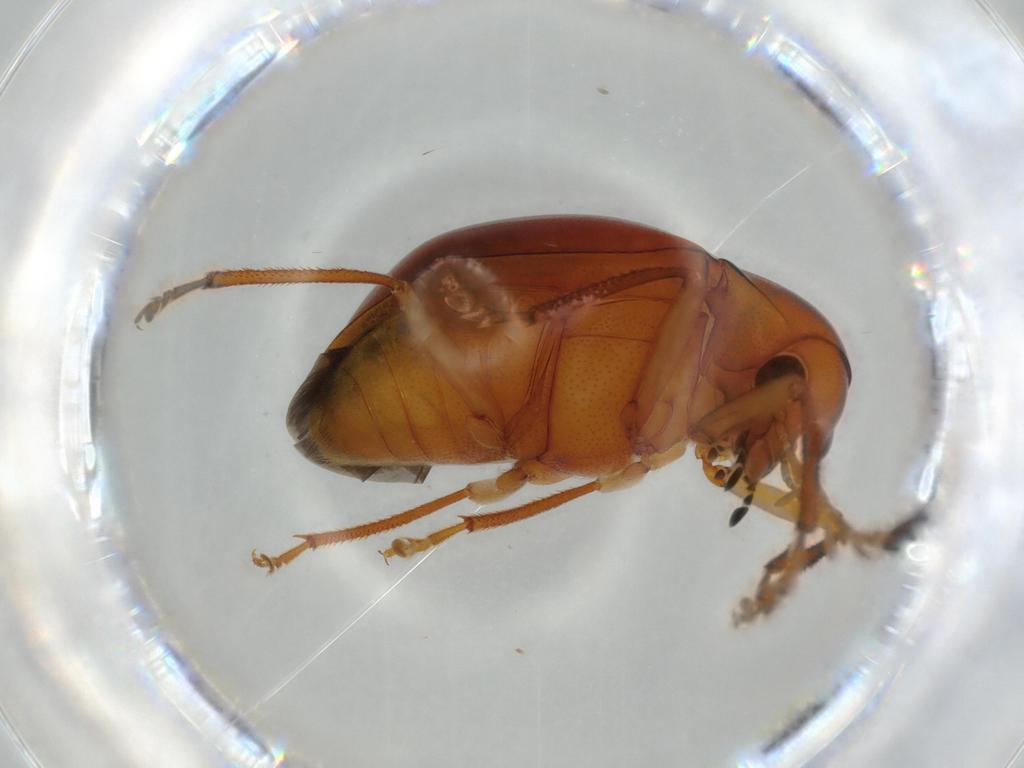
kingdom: Animalia
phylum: Arthropoda
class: Insecta
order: Coleoptera
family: Ptilodactylidae
